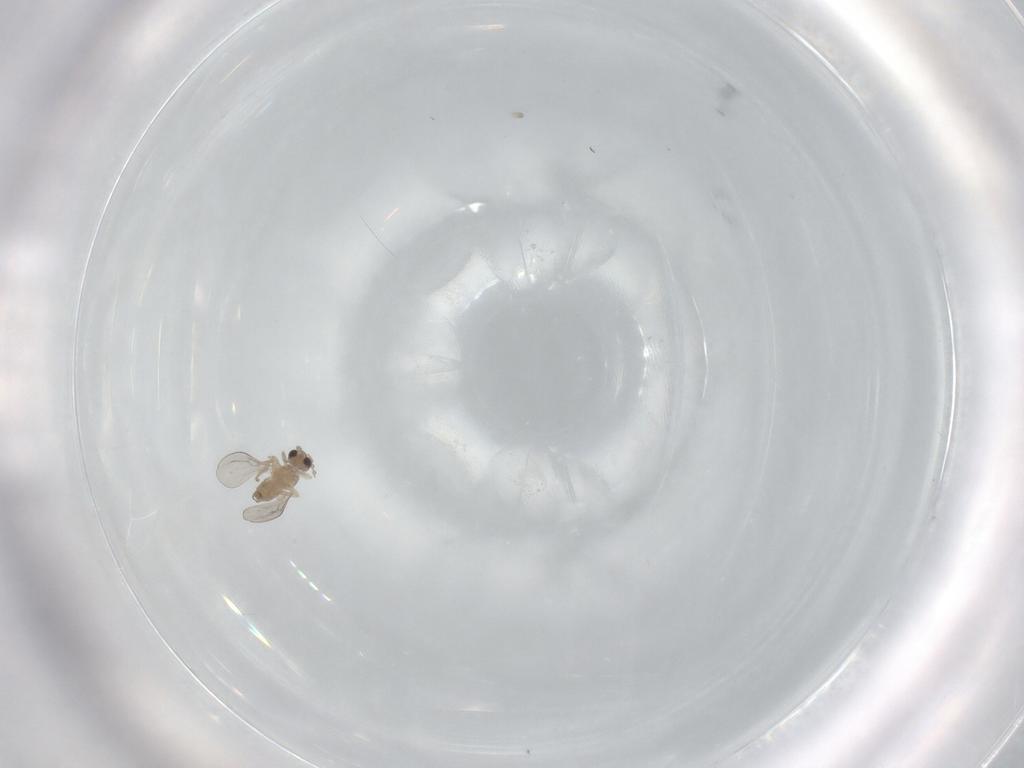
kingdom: Animalia
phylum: Arthropoda
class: Insecta
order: Diptera
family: Cecidomyiidae
